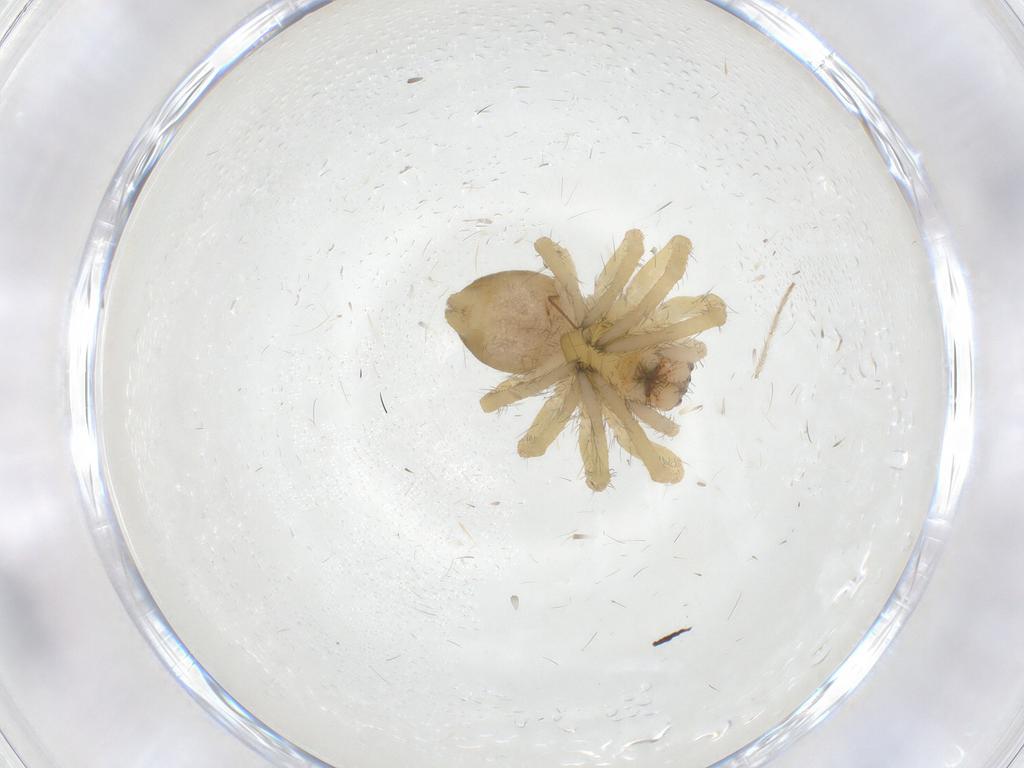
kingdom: Animalia
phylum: Arthropoda
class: Arachnida
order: Araneae
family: Mimetidae
